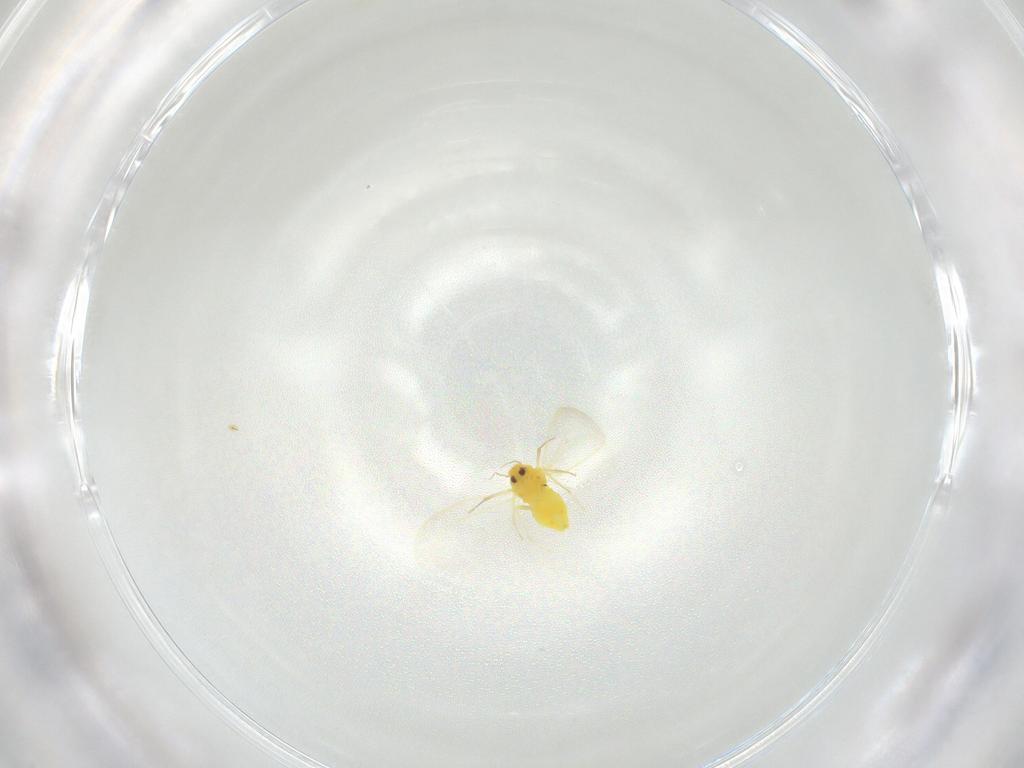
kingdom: Animalia
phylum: Arthropoda
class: Insecta
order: Hemiptera
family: Aleyrodidae
